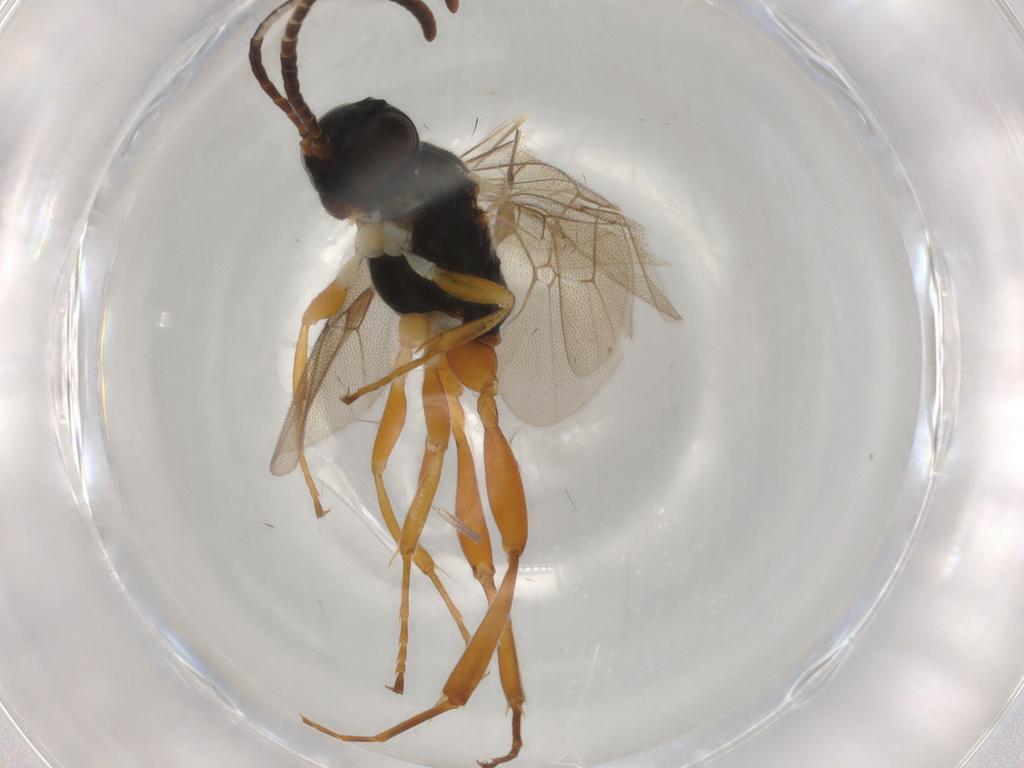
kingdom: Animalia
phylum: Arthropoda
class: Insecta
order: Hymenoptera
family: Ichneumonidae
